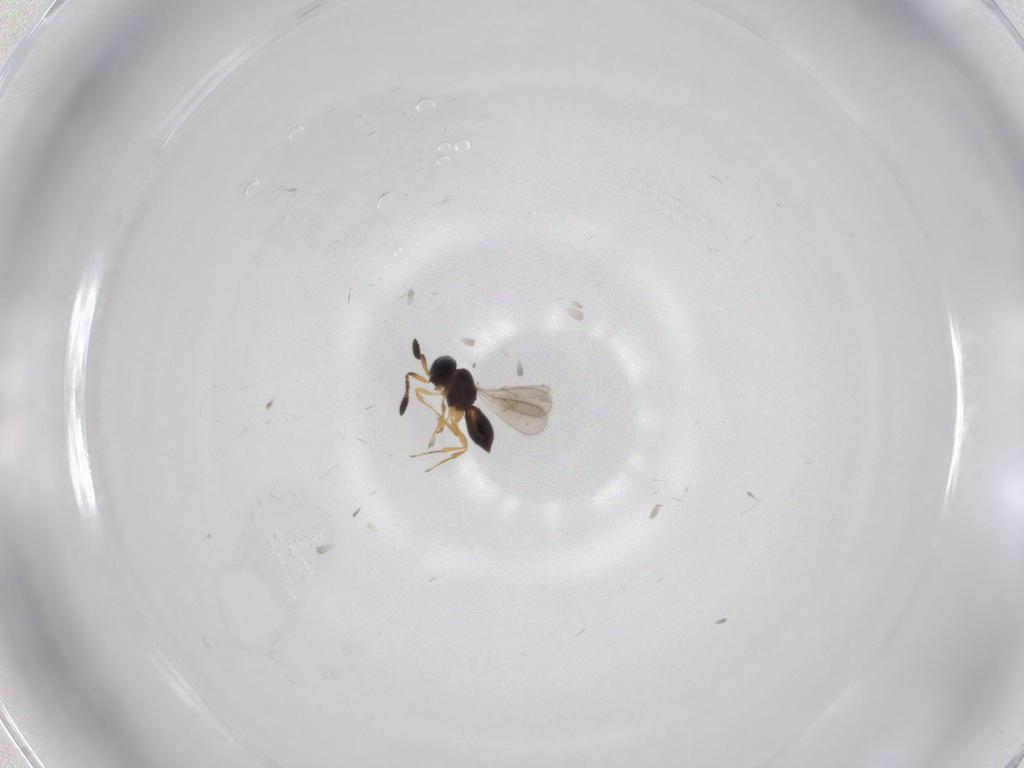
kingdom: Animalia
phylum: Arthropoda
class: Insecta
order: Hymenoptera
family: Scelionidae
